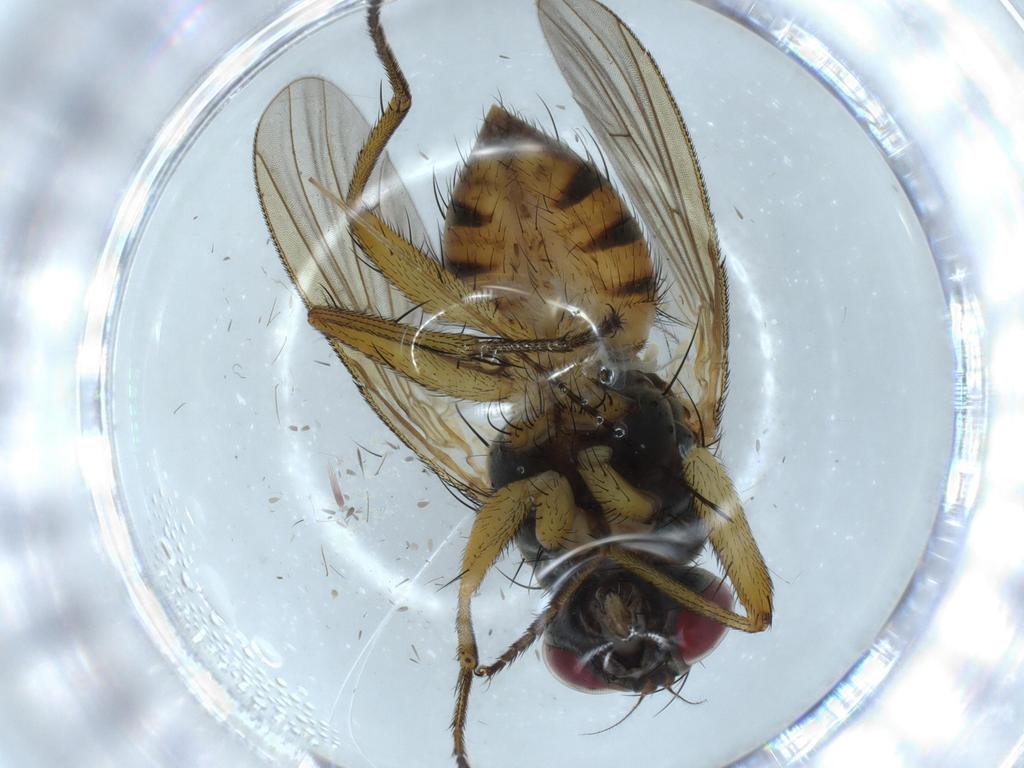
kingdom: Animalia
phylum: Arthropoda
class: Insecta
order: Diptera
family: Muscidae
